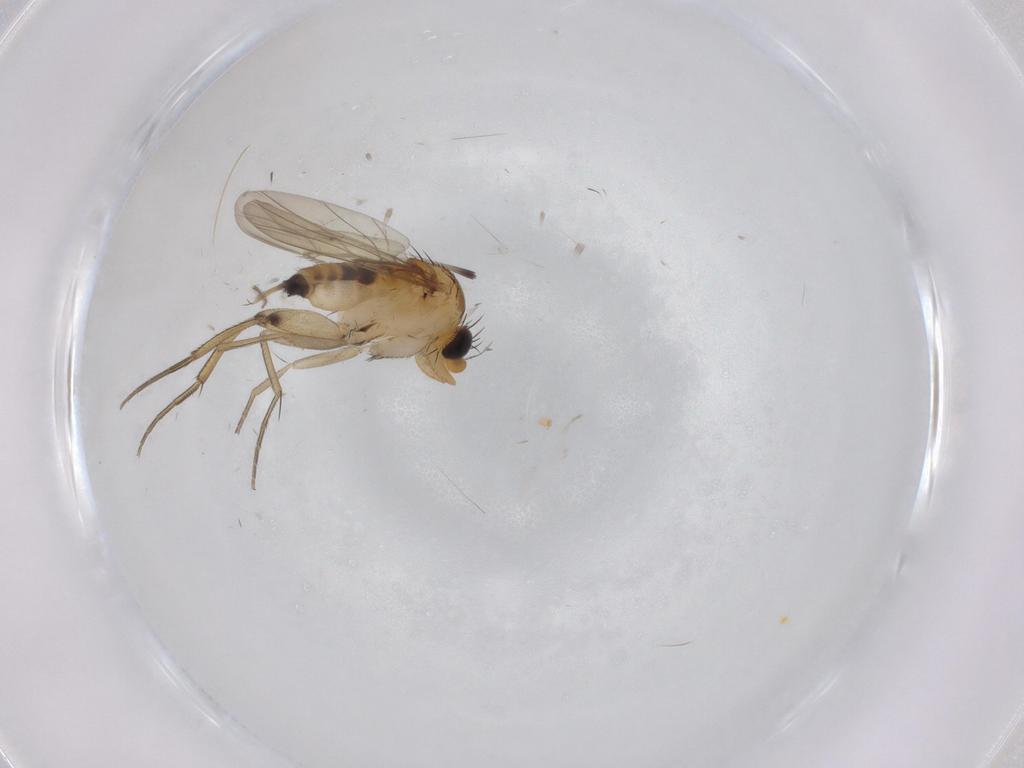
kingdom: Animalia
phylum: Arthropoda
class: Insecta
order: Diptera
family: Phoridae
